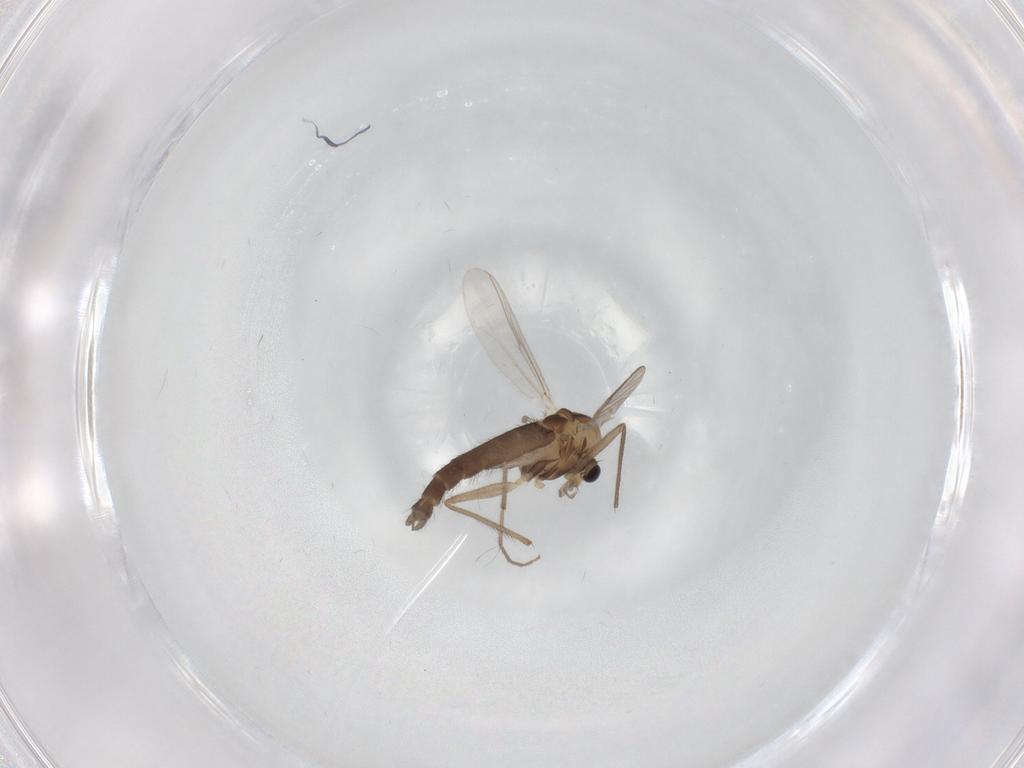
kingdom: Animalia
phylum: Arthropoda
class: Insecta
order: Diptera
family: Chironomidae
